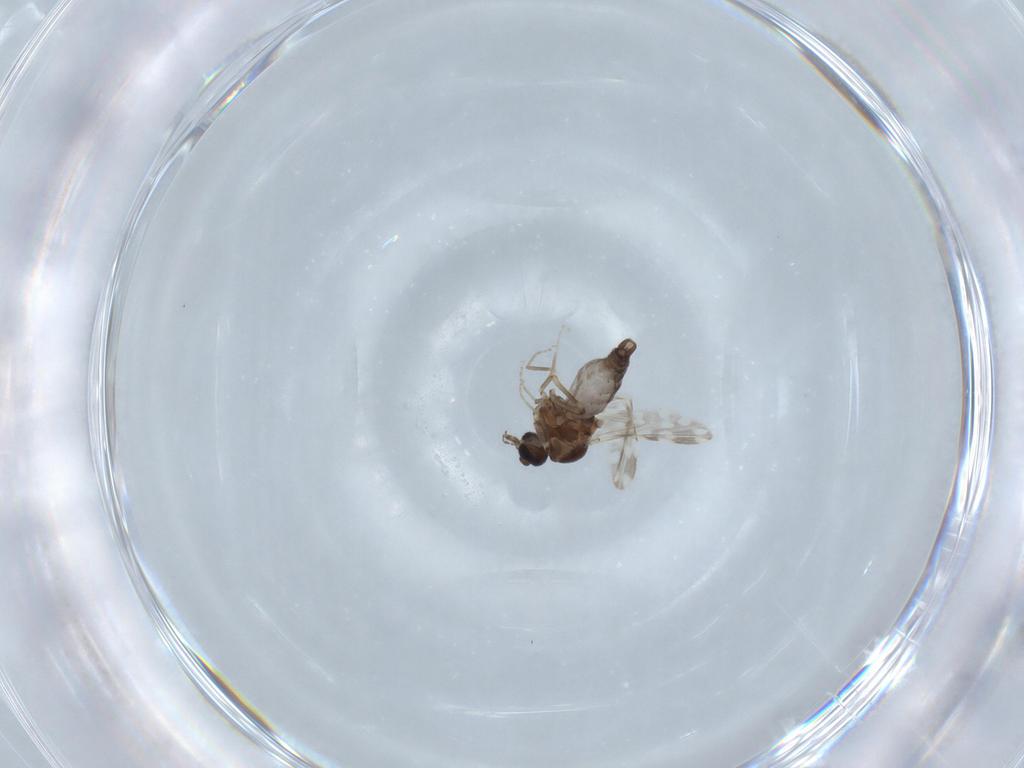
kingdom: Animalia
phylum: Arthropoda
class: Insecta
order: Diptera
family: Ceratopogonidae
